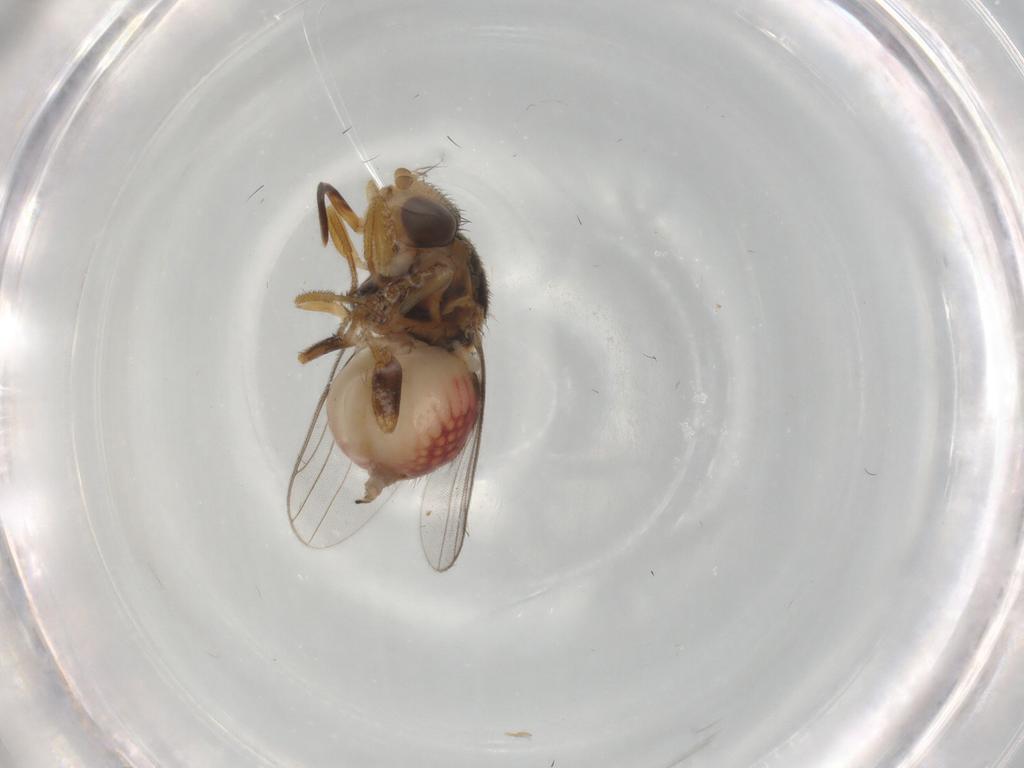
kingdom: Animalia
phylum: Arthropoda
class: Insecta
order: Diptera
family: Chloropidae
